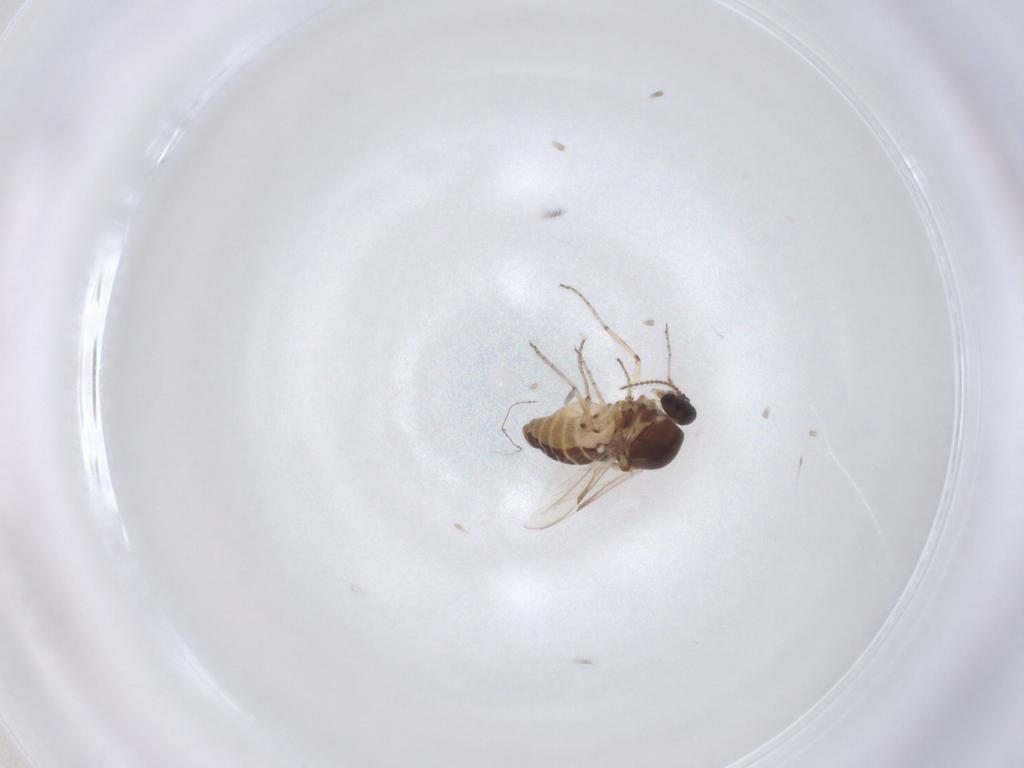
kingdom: Animalia
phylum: Arthropoda
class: Insecta
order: Diptera
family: Ceratopogonidae
